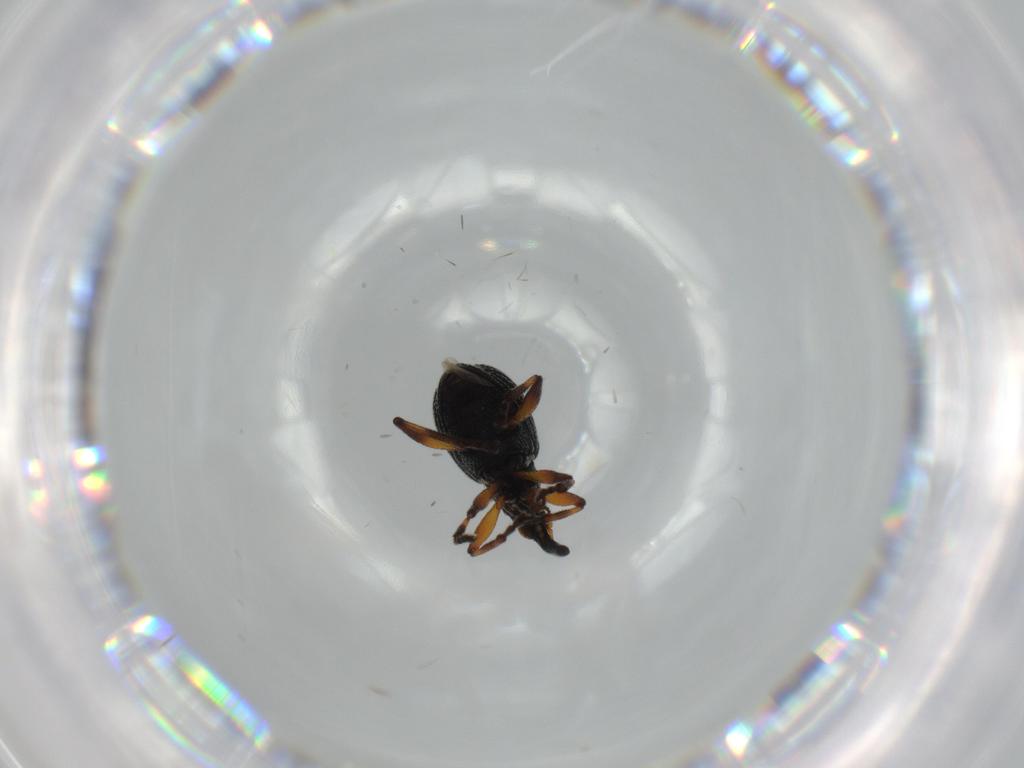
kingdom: Animalia
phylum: Arthropoda
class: Insecta
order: Coleoptera
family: Brentidae
